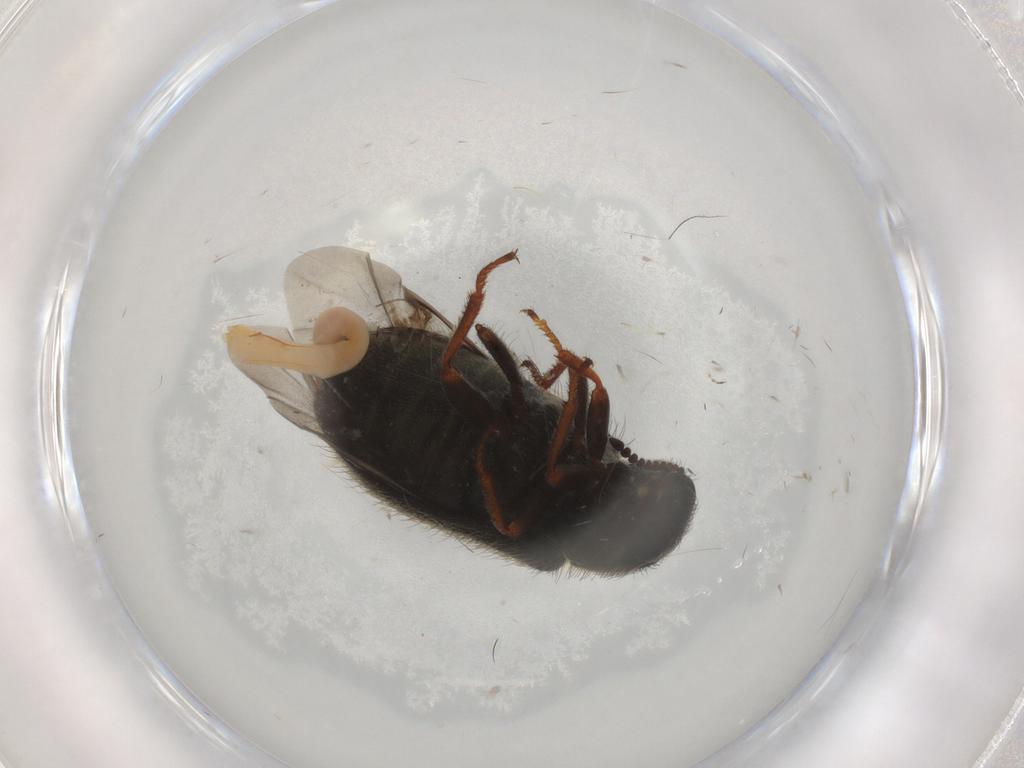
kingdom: Animalia
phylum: Arthropoda
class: Insecta
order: Coleoptera
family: Melyridae
